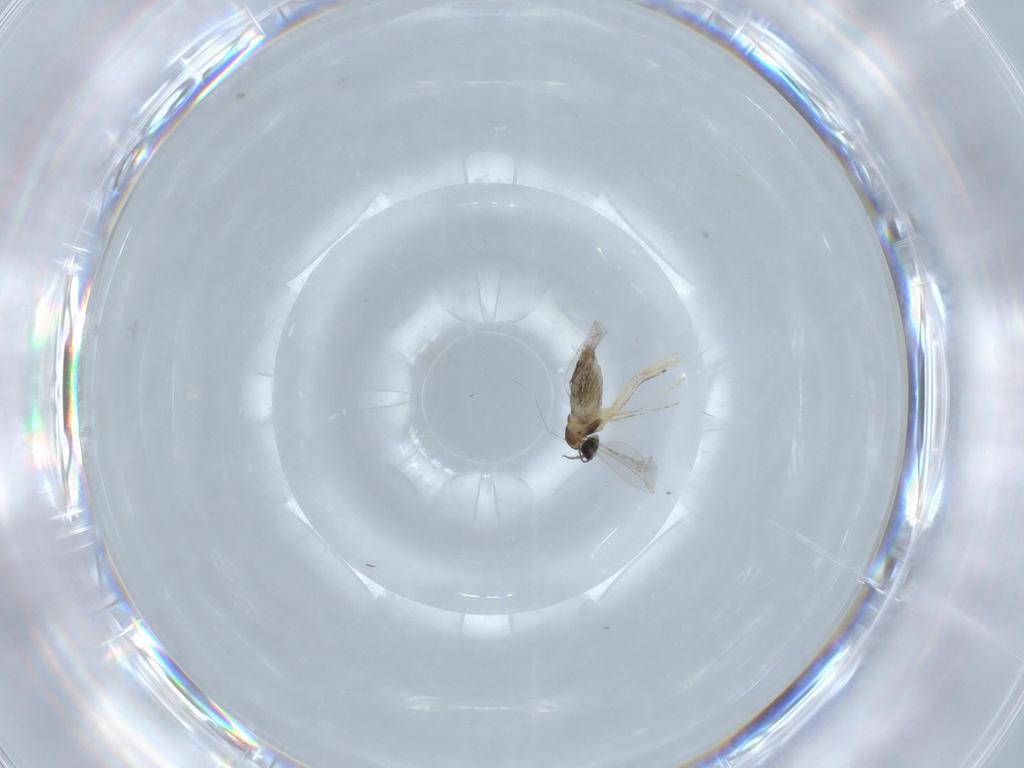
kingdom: Animalia
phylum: Arthropoda
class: Insecta
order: Diptera
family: Cecidomyiidae
